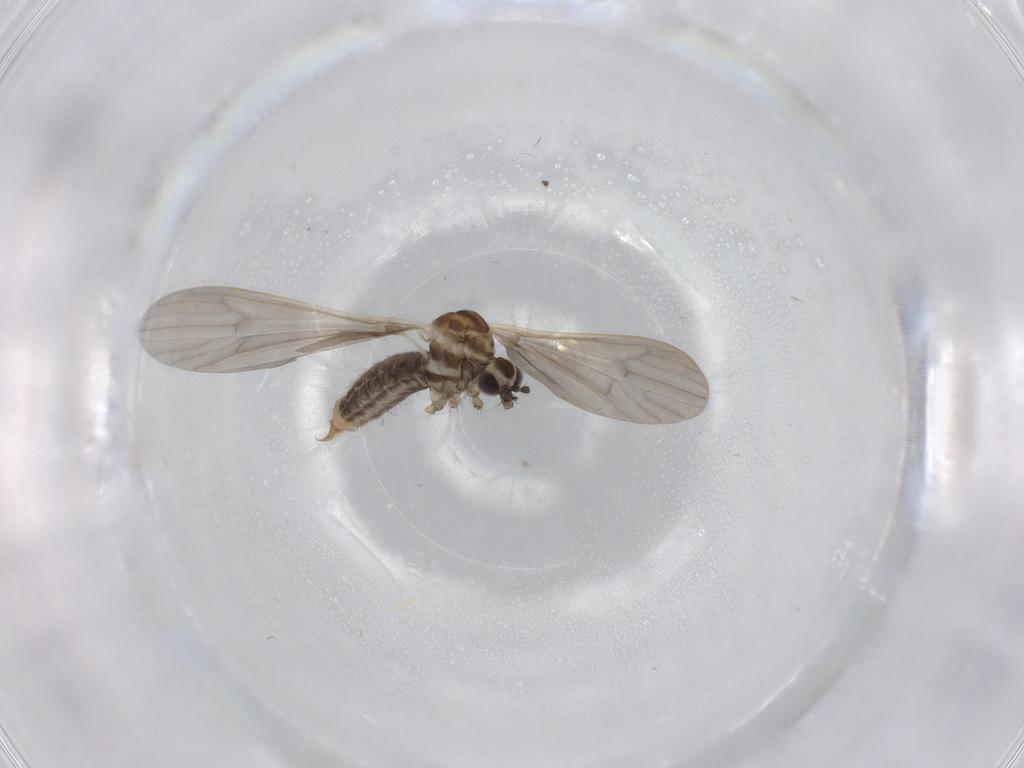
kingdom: Animalia
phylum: Arthropoda
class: Insecta
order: Diptera
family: Limoniidae
